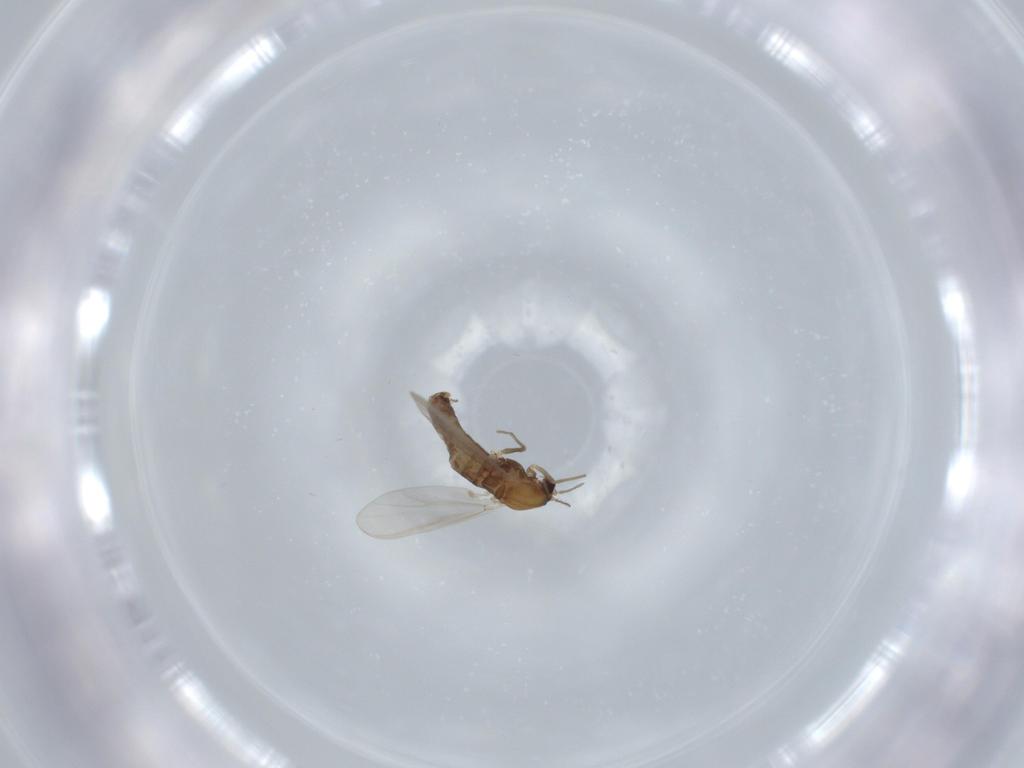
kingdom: Animalia
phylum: Arthropoda
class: Insecta
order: Diptera
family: Chironomidae
